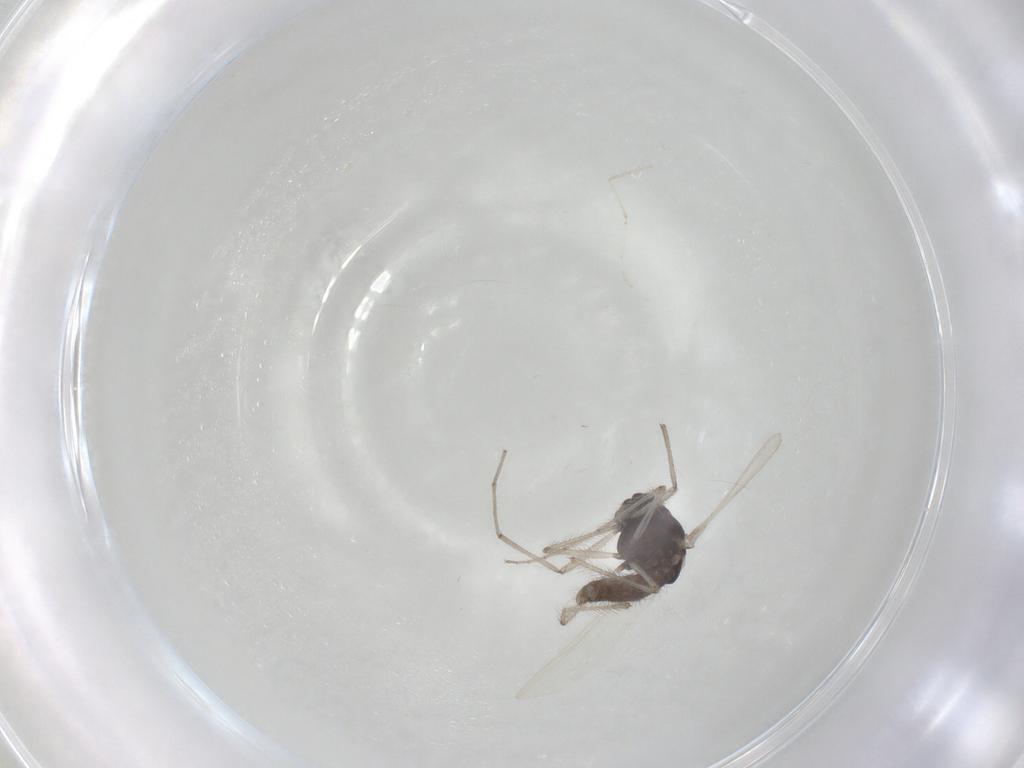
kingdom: Animalia
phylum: Arthropoda
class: Insecta
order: Diptera
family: Chironomidae
